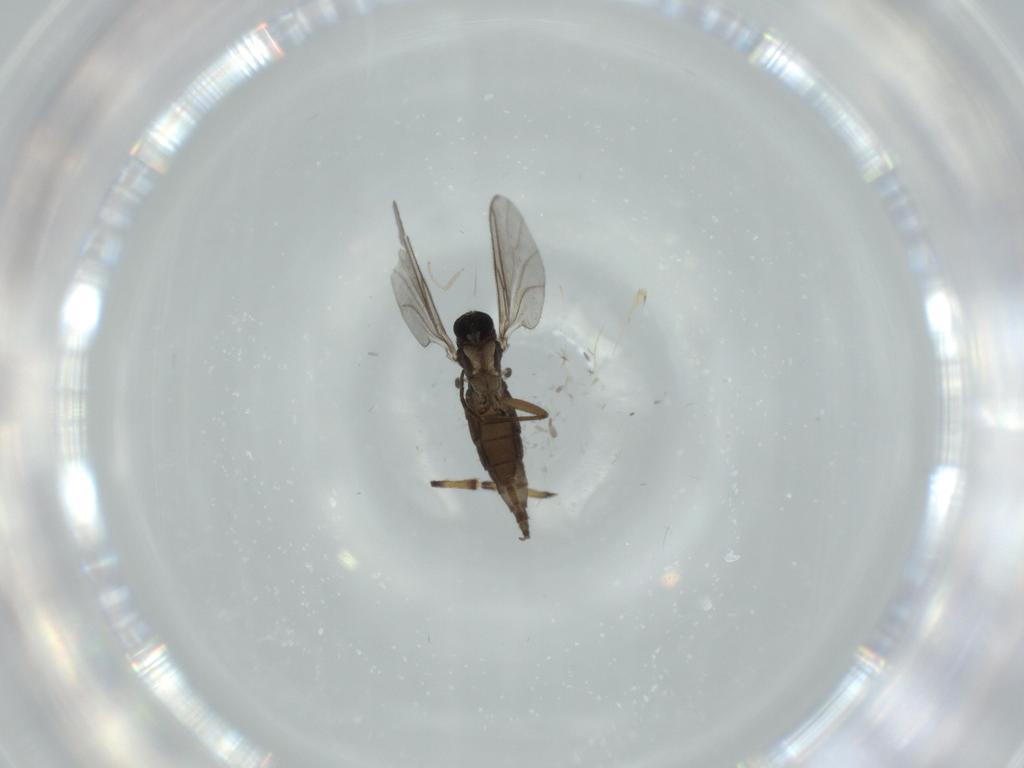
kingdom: Animalia
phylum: Arthropoda
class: Insecta
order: Diptera
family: Sciaridae
